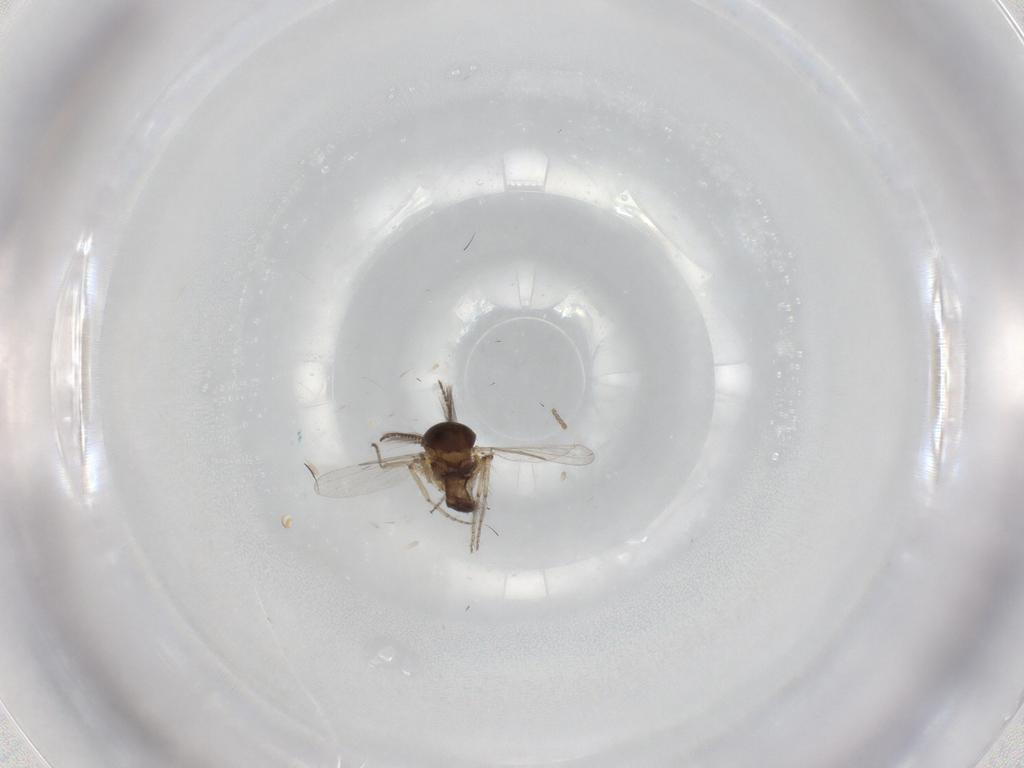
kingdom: Animalia
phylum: Arthropoda
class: Insecta
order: Diptera
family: Ceratopogonidae
